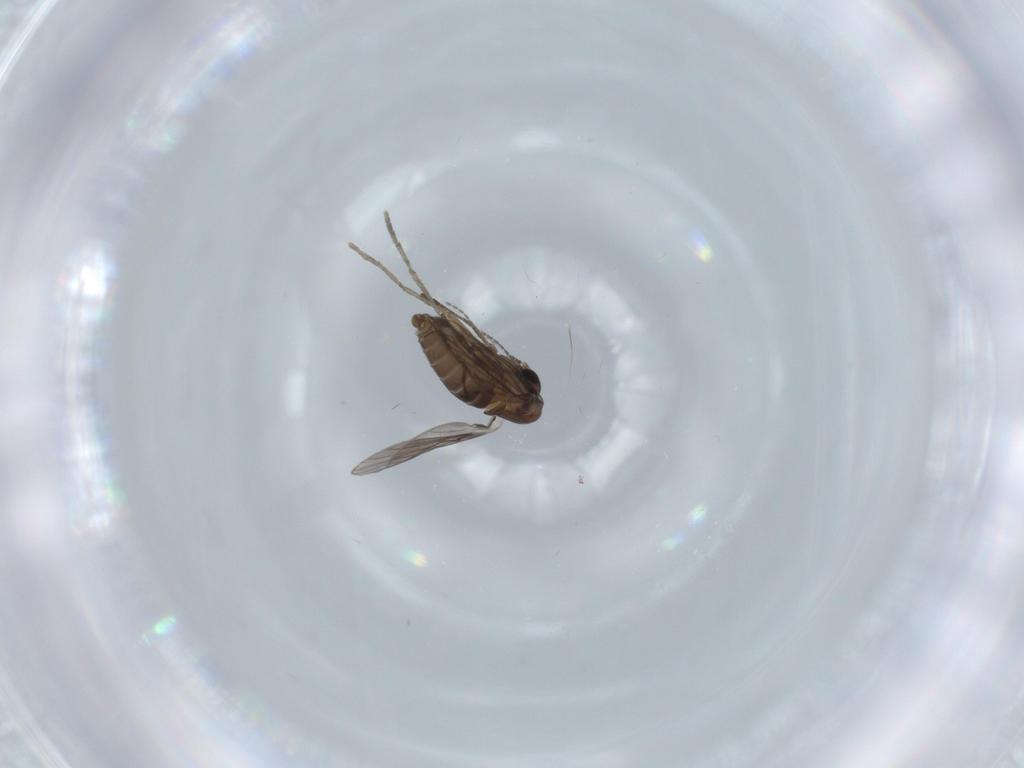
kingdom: Animalia
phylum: Arthropoda
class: Insecta
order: Diptera
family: Psychodidae
